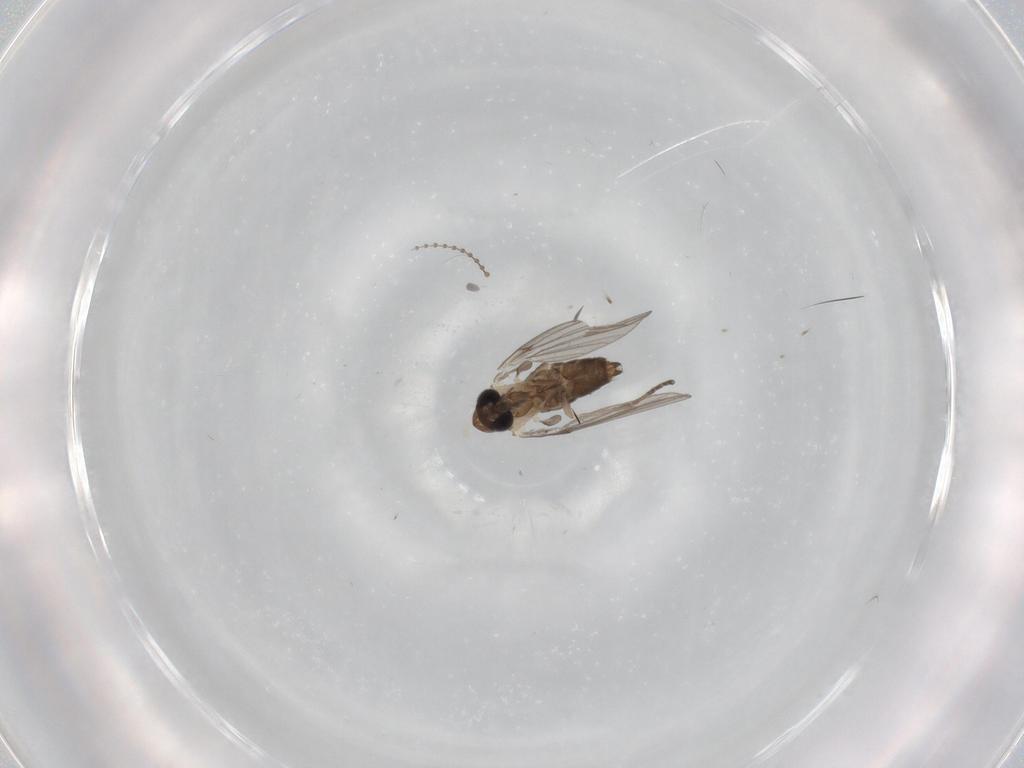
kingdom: Animalia
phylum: Arthropoda
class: Insecta
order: Diptera
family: Psychodidae
